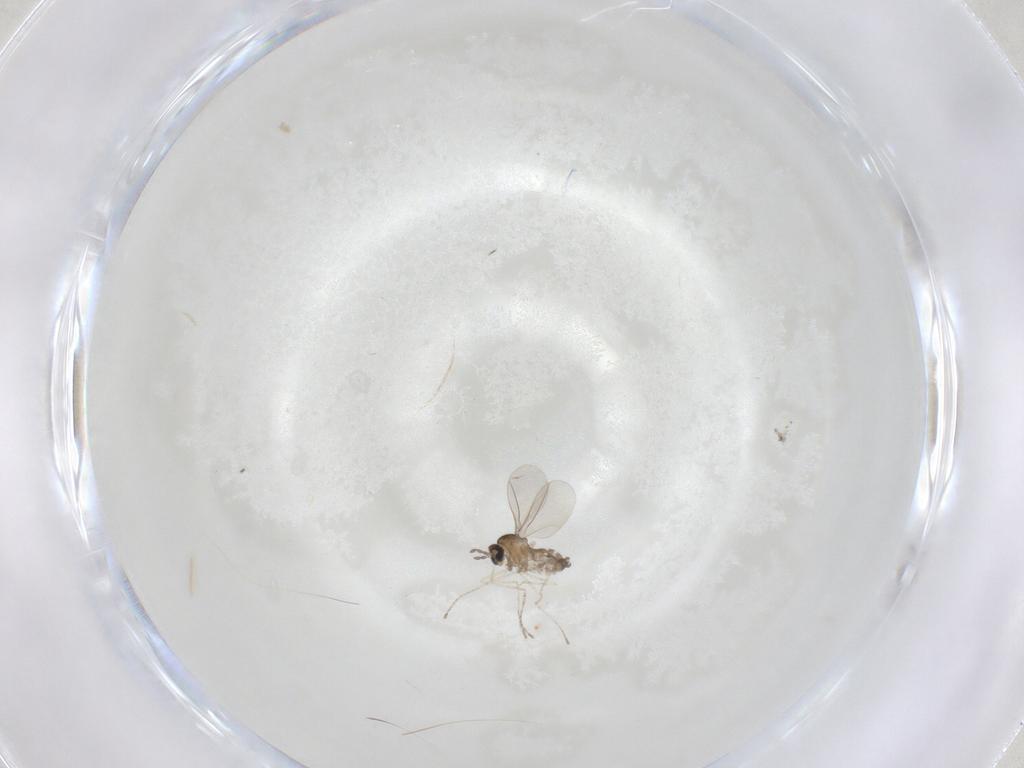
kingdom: Animalia
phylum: Arthropoda
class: Insecta
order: Diptera
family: Cecidomyiidae
